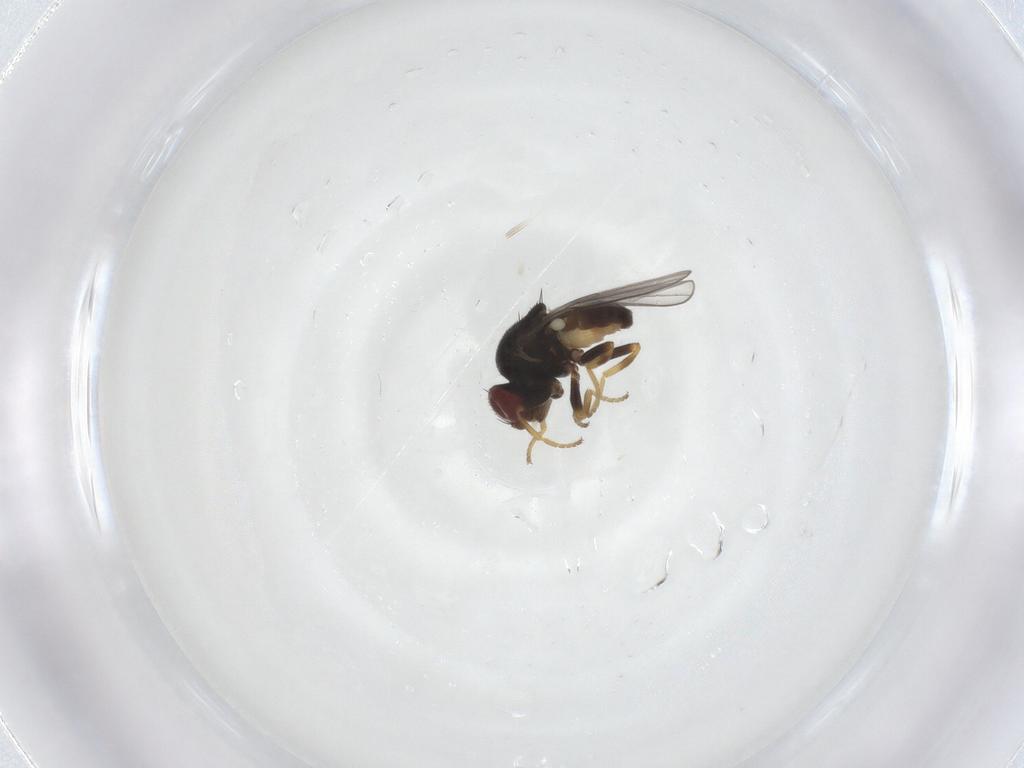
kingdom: Animalia
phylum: Arthropoda
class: Insecta
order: Diptera
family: Chloropidae
